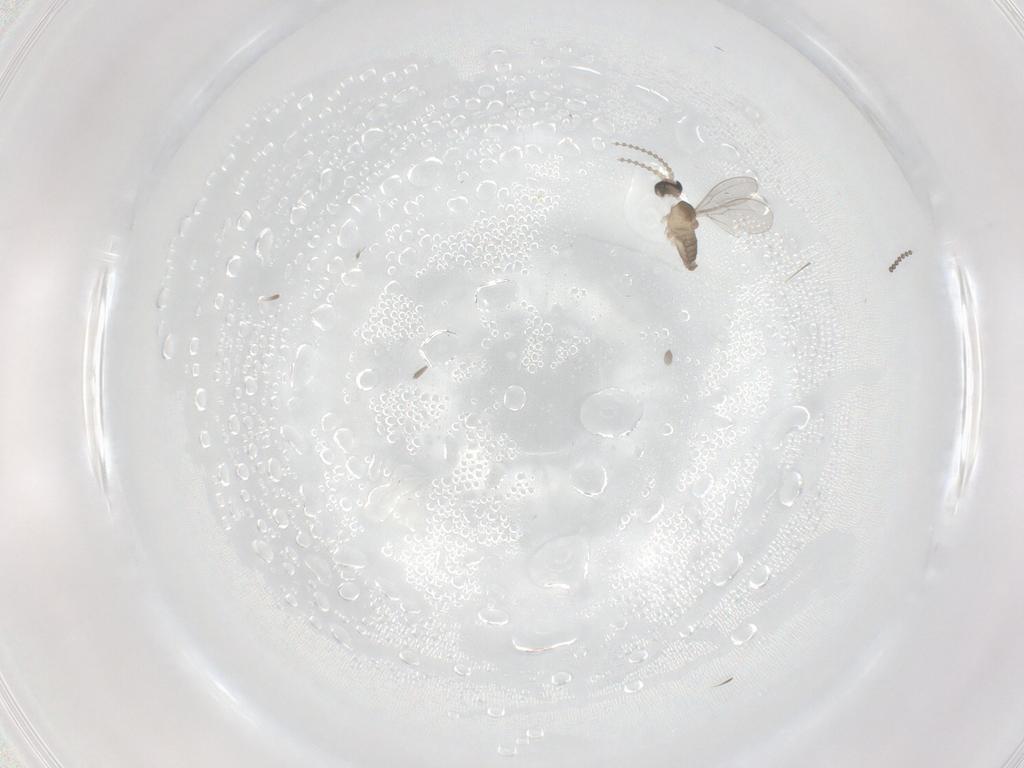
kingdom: Animalia
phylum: Arthropoda
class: Insecta
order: Diptera
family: Cecidomyiidae
